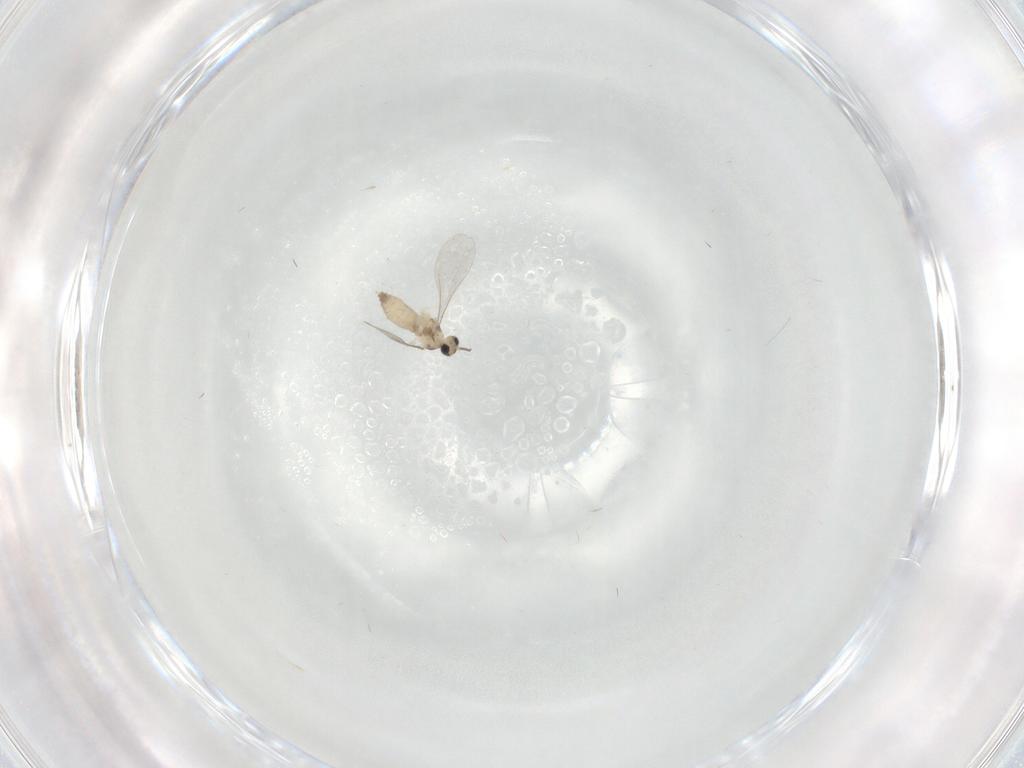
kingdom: Animalia
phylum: Arthropoda
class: Insecta
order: Diptera
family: Cecidomyiidae
